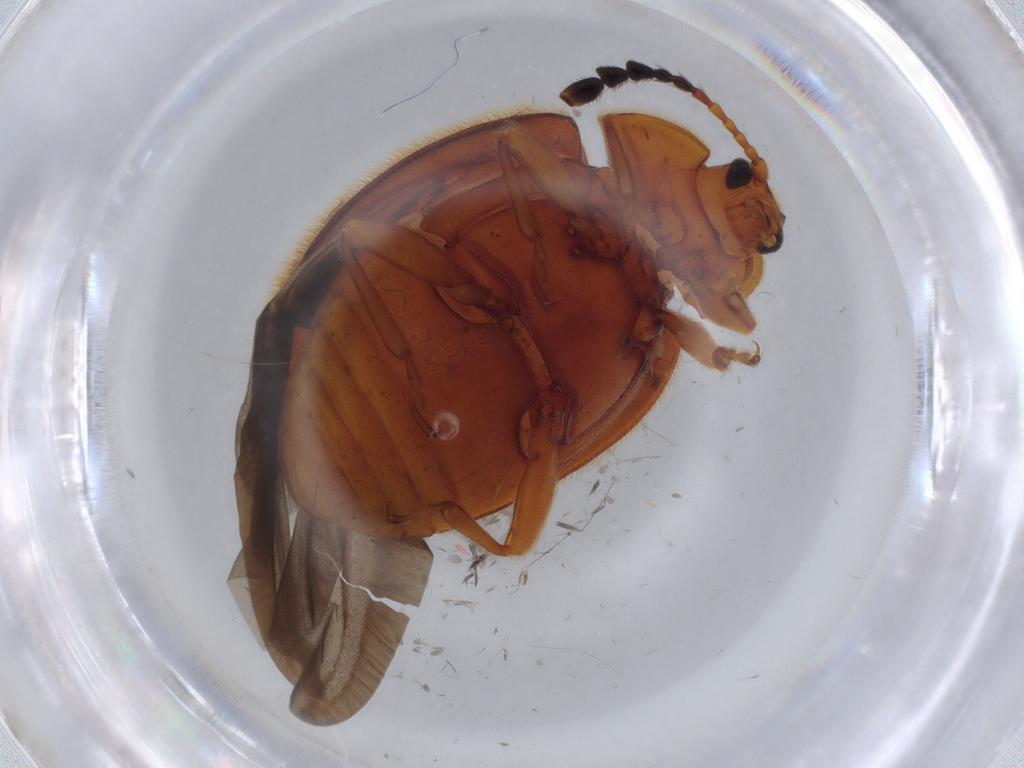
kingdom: Animalia
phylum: Arthropoda
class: Insecta
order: Coleoptera
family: Endomychidae
